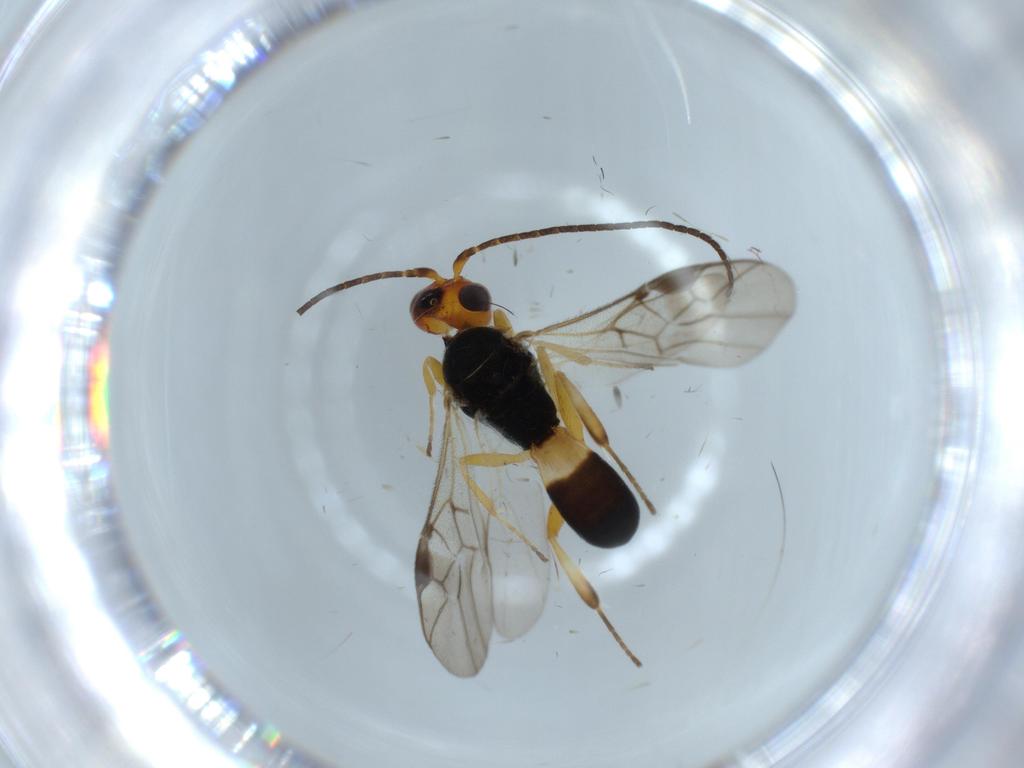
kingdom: Animalia
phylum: Arthropoda
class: Insecta
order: Hymenoptera
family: Braconidae
